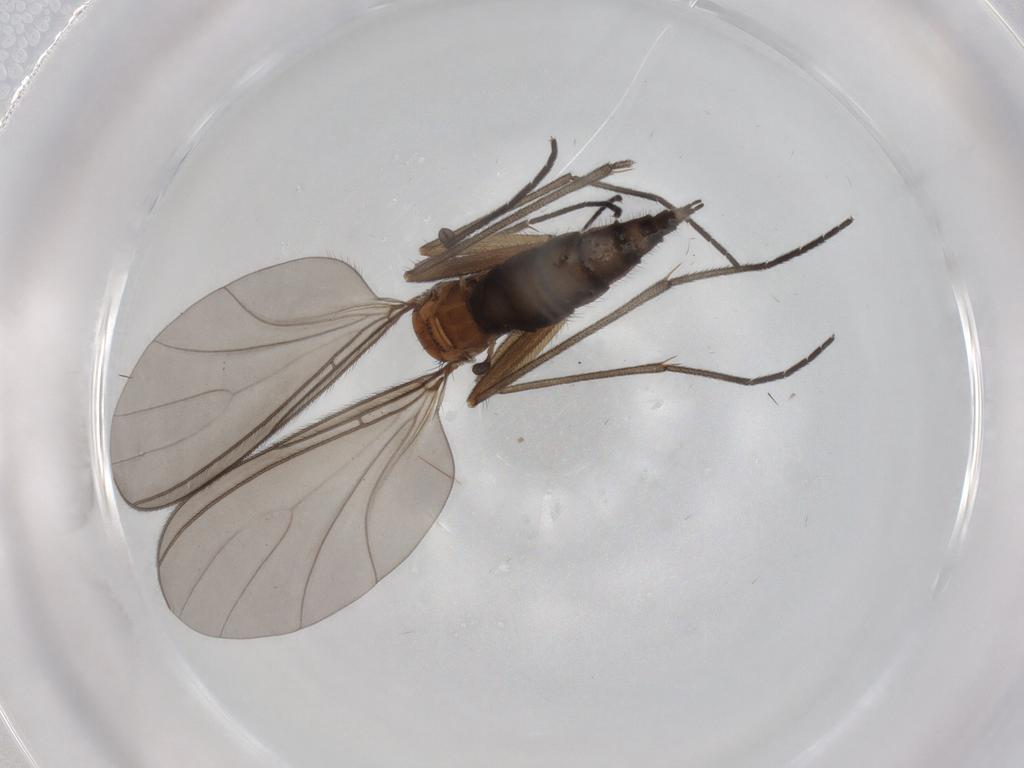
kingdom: Animalia
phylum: Arthropoda
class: Insecta
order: Diptera
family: Sciaridae
